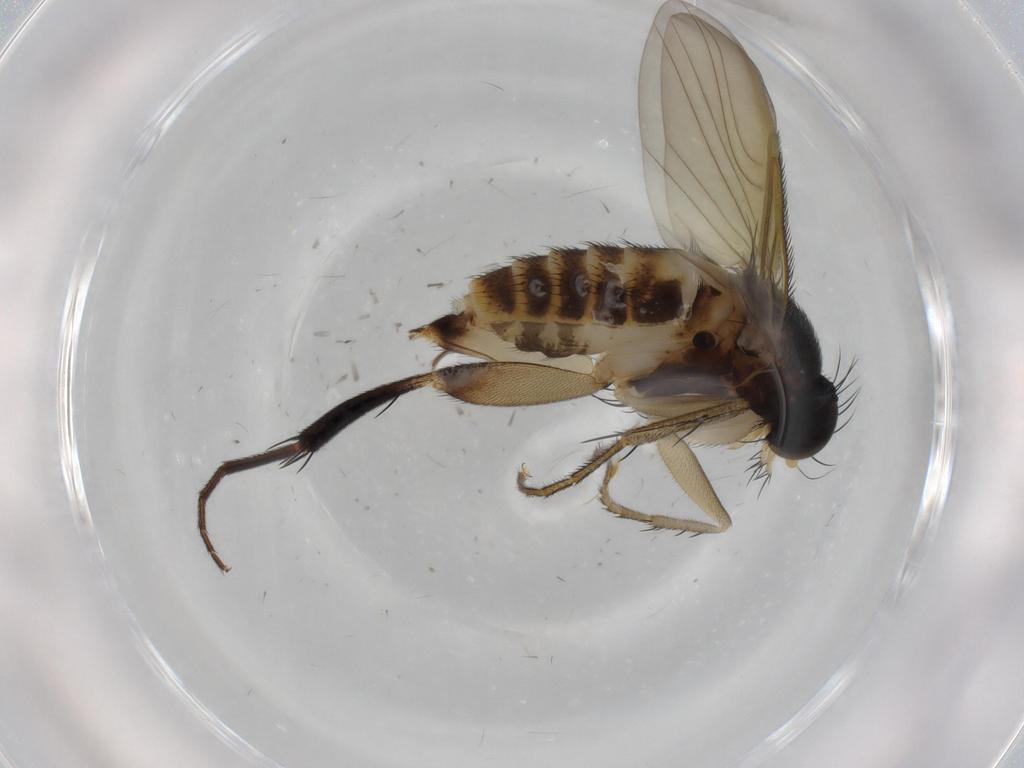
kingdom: Animalia
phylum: Arthropoda
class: Insecta
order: Diptera
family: Phoridae
